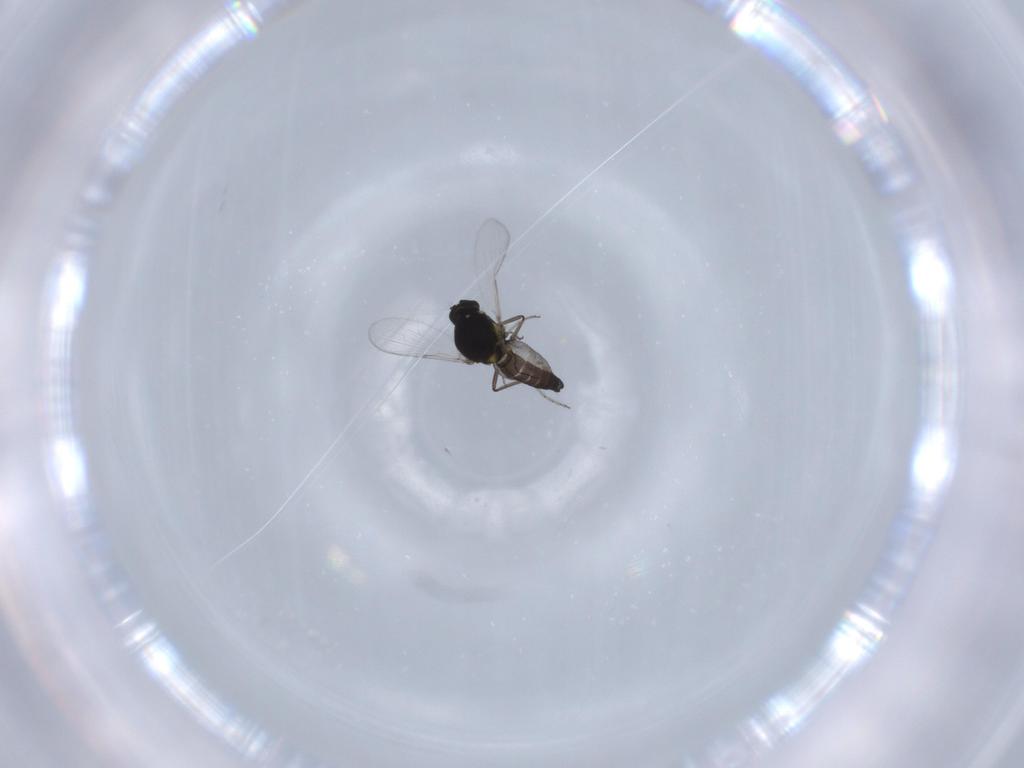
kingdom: Animalia
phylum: Arthropoda
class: Insecta
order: Diptera
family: Ceratopogonidae
